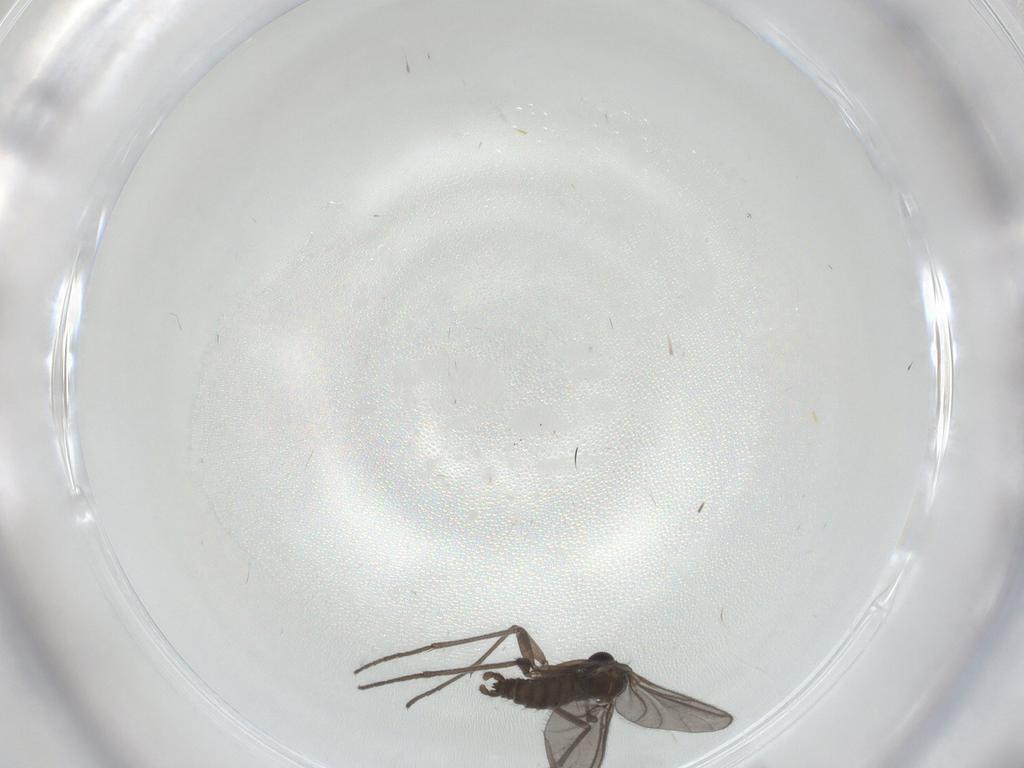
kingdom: Animalia
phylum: Arthropoda
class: Insecta
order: Diptera
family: Sciaridae
